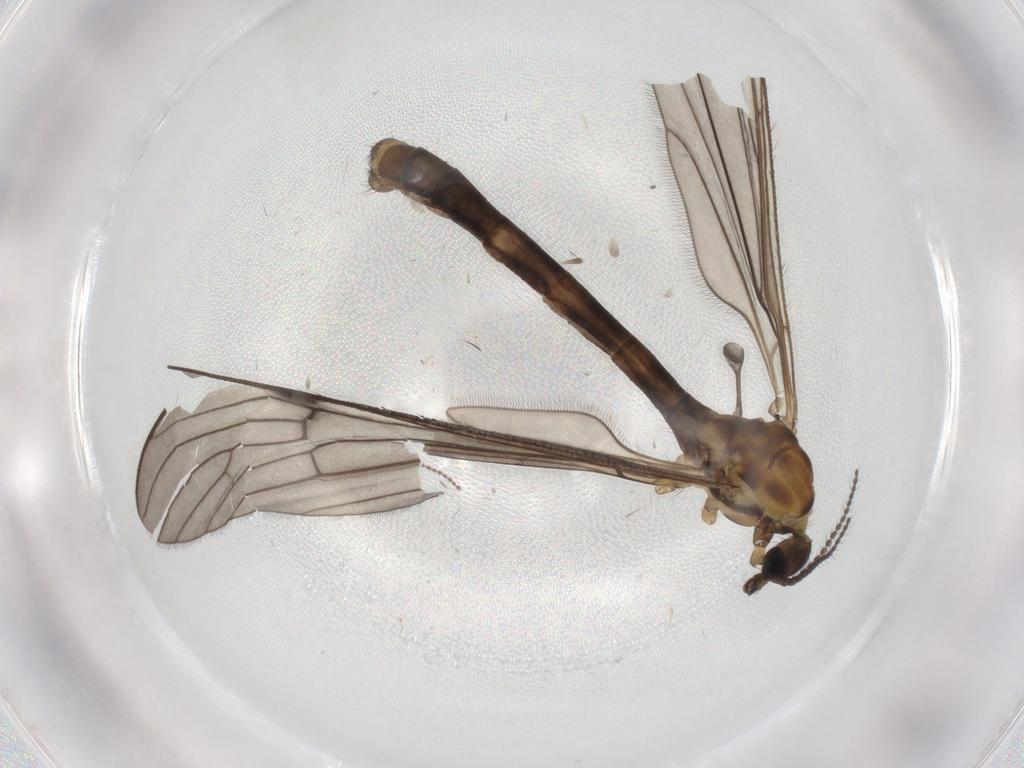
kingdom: Animalia
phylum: Arthropoda
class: Insecta
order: Diptera
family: Limoniidae
